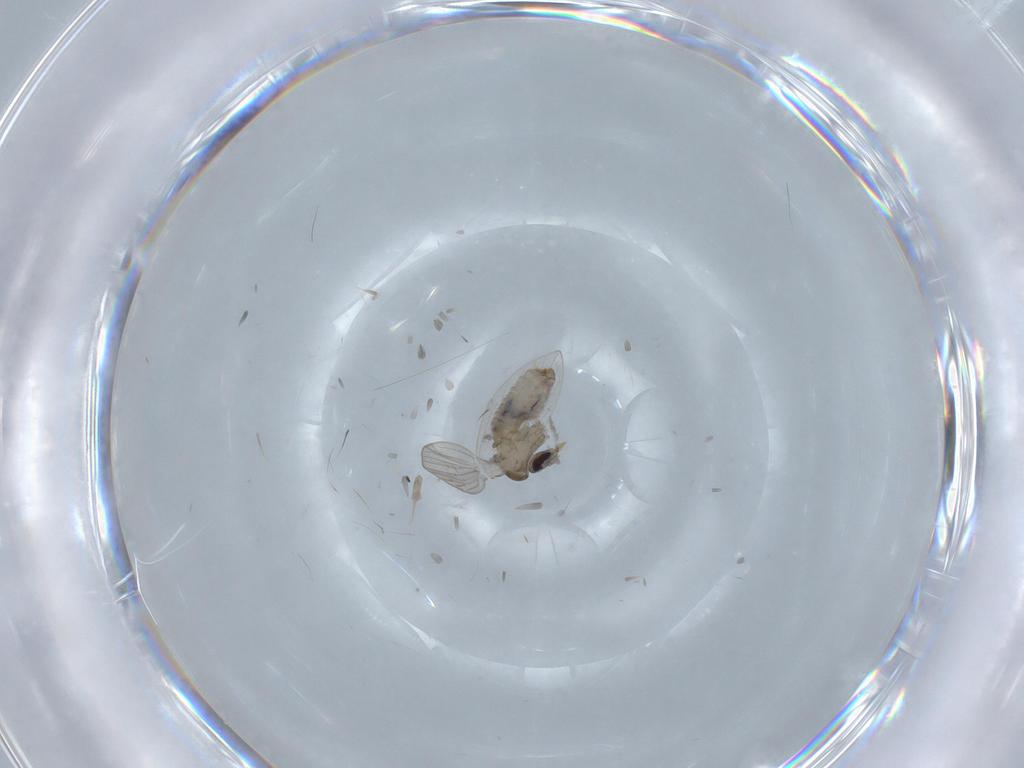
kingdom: Animalia
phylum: Arthropoda
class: Insecta
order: Diptera
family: Psychodidae
